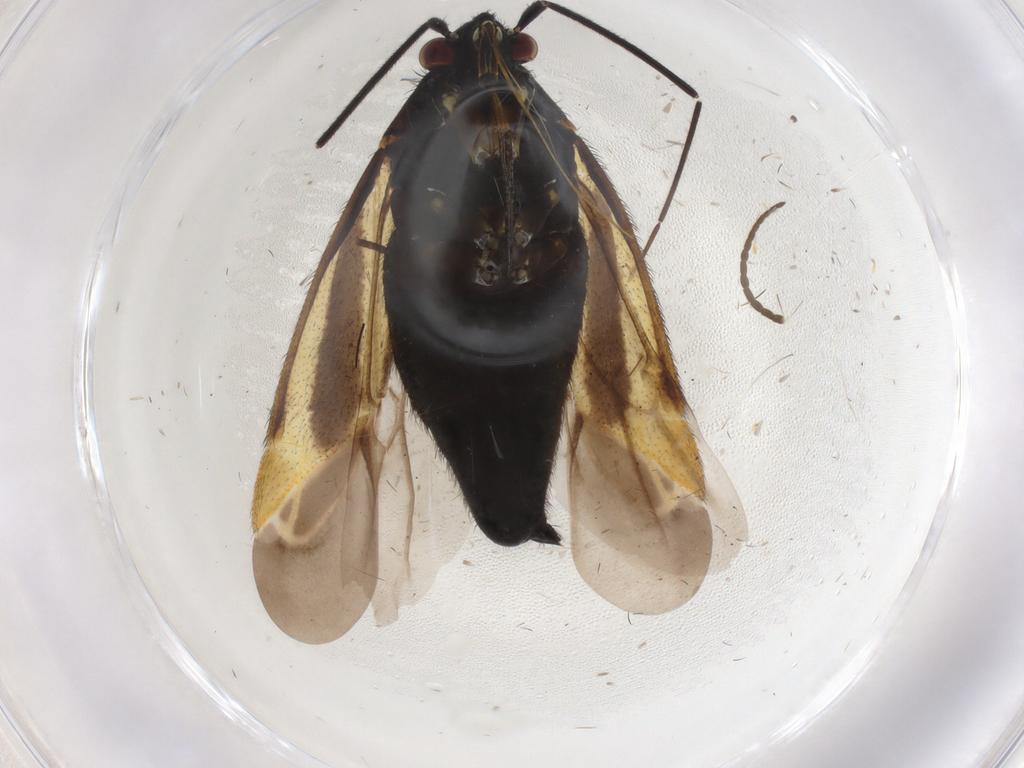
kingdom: Animalia
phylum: Arthropoda
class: Insecta
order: Hemiptera
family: Miridae
